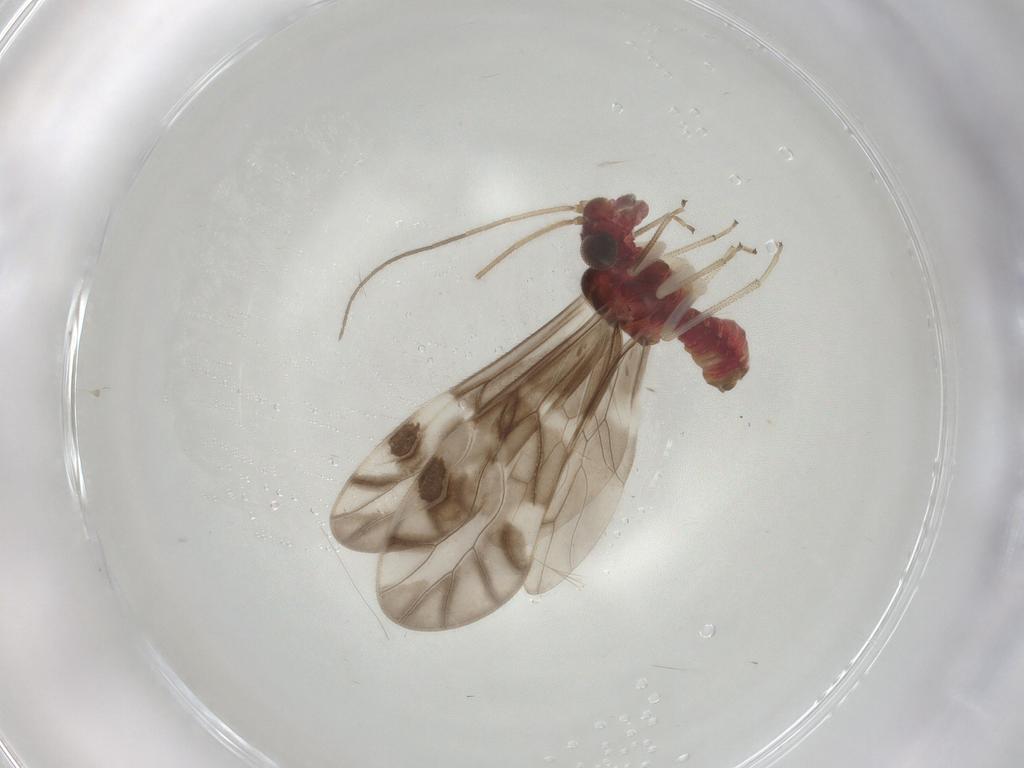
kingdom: Animalia
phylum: Arthropoda
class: Insecta
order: Psocodea
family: Caeciliusidae
